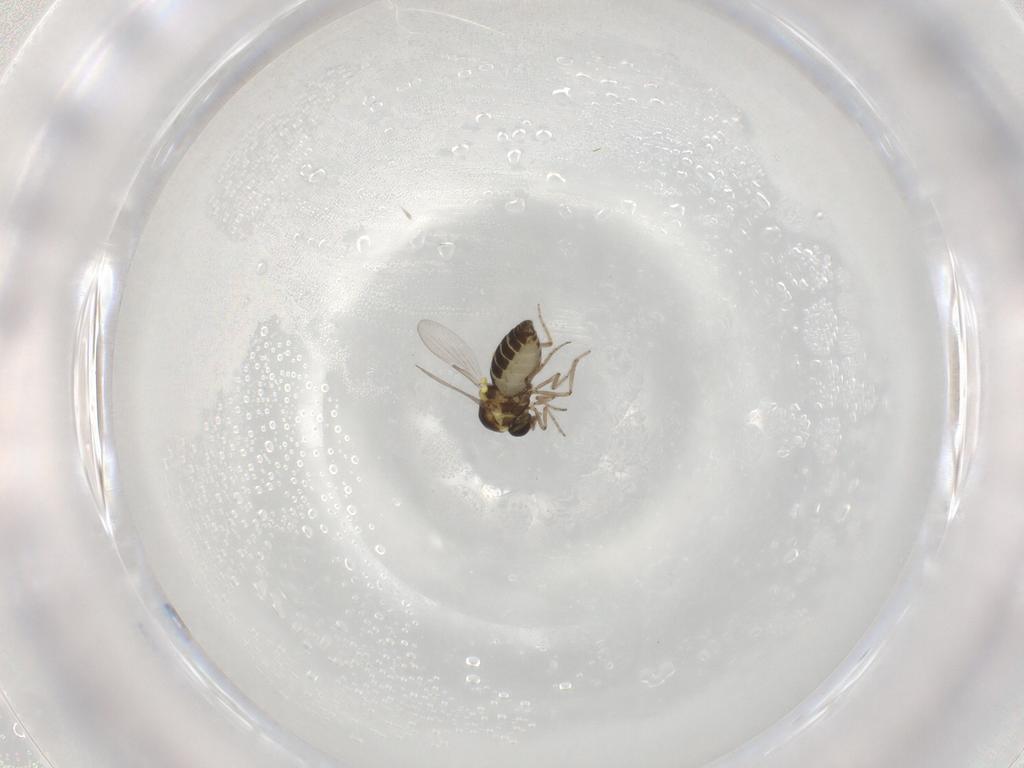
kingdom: Animalia
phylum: Arthropoda
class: Insecta
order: Diptera
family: Ceratopogonidae
